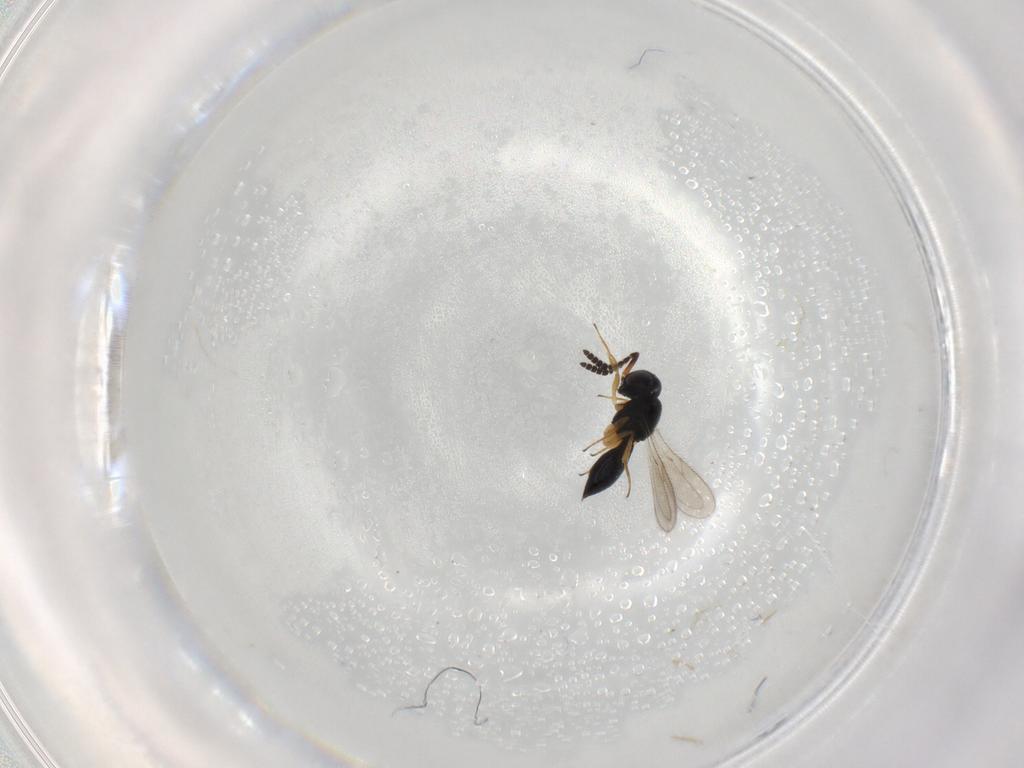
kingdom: Animalia
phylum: Arthropoda
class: Insecta
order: Hymenoptera
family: Scelionidae
